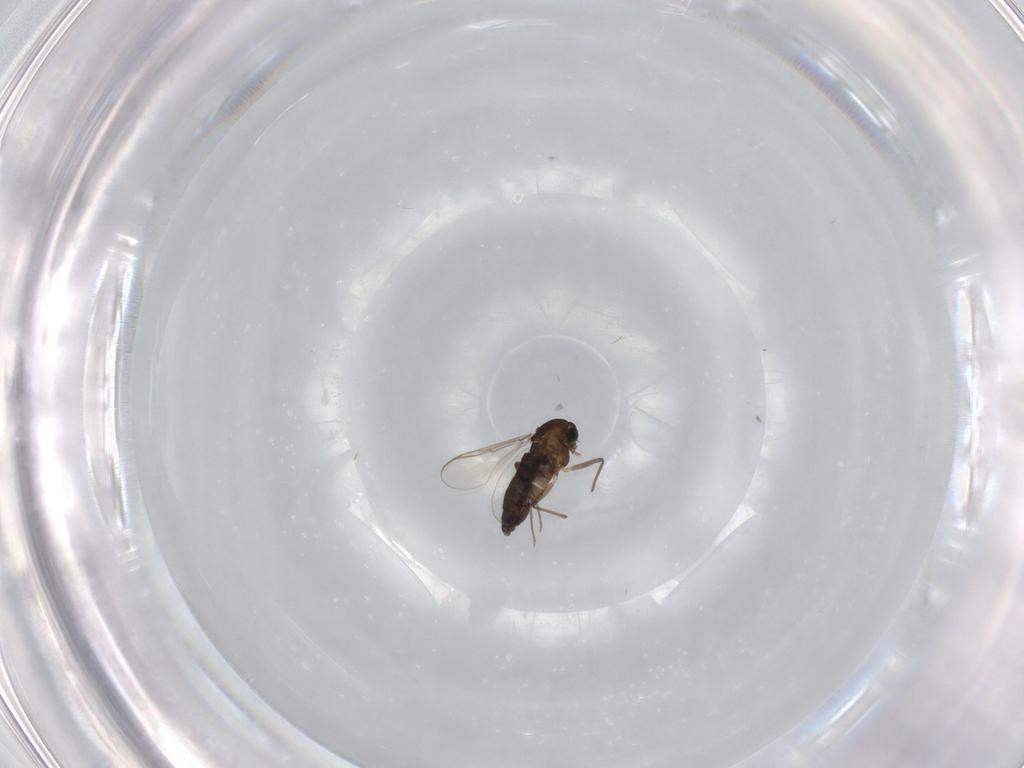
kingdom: Animalia
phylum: Arthropoda
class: Insecta
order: Diptera
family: Chironomidae
